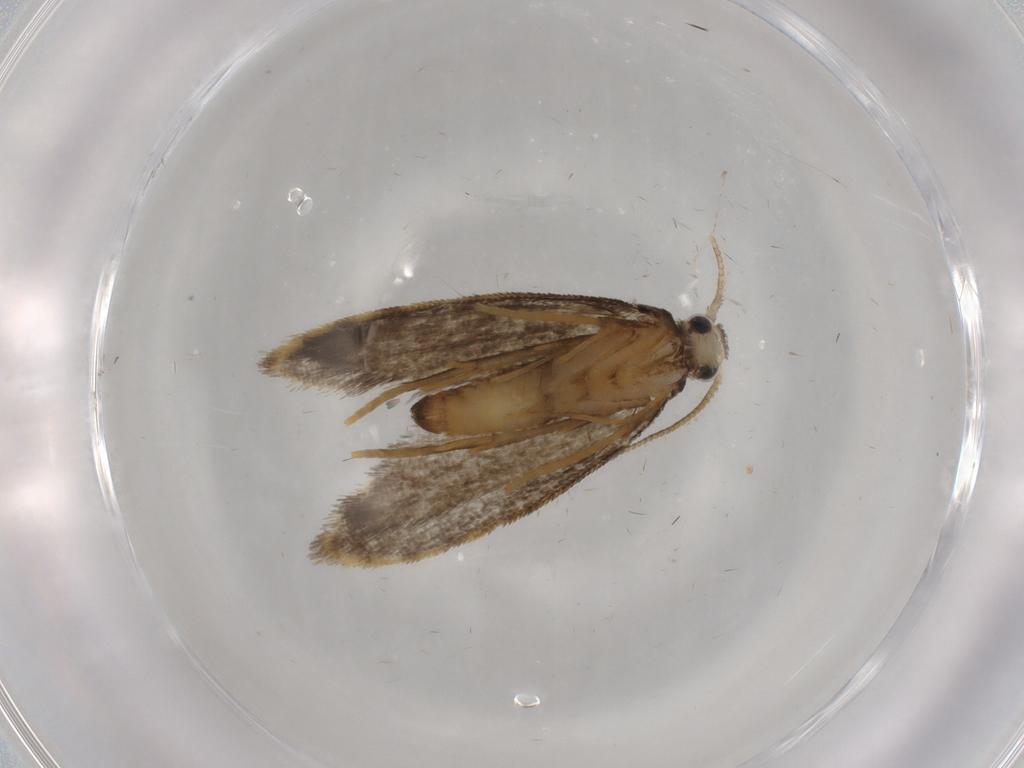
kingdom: Animalia
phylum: Arthropoda
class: Insecta
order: Lepidoptera
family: Psychidae
